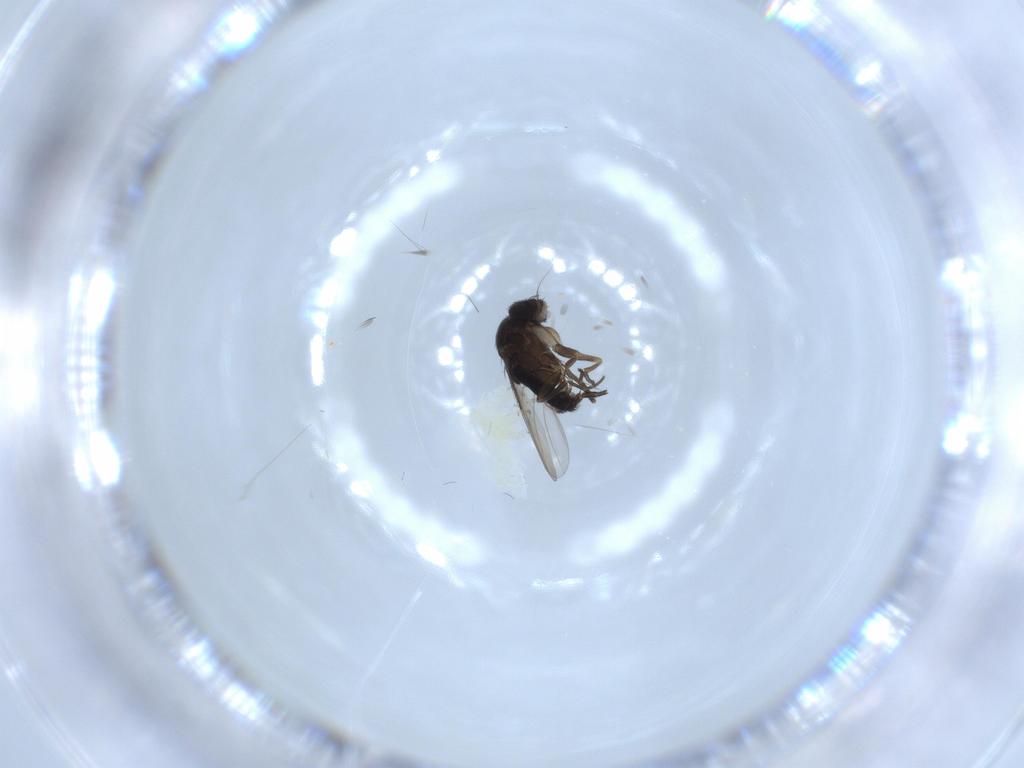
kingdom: Animalia
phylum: Arthropoda
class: Insecta
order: Diptera
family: Phoridae
